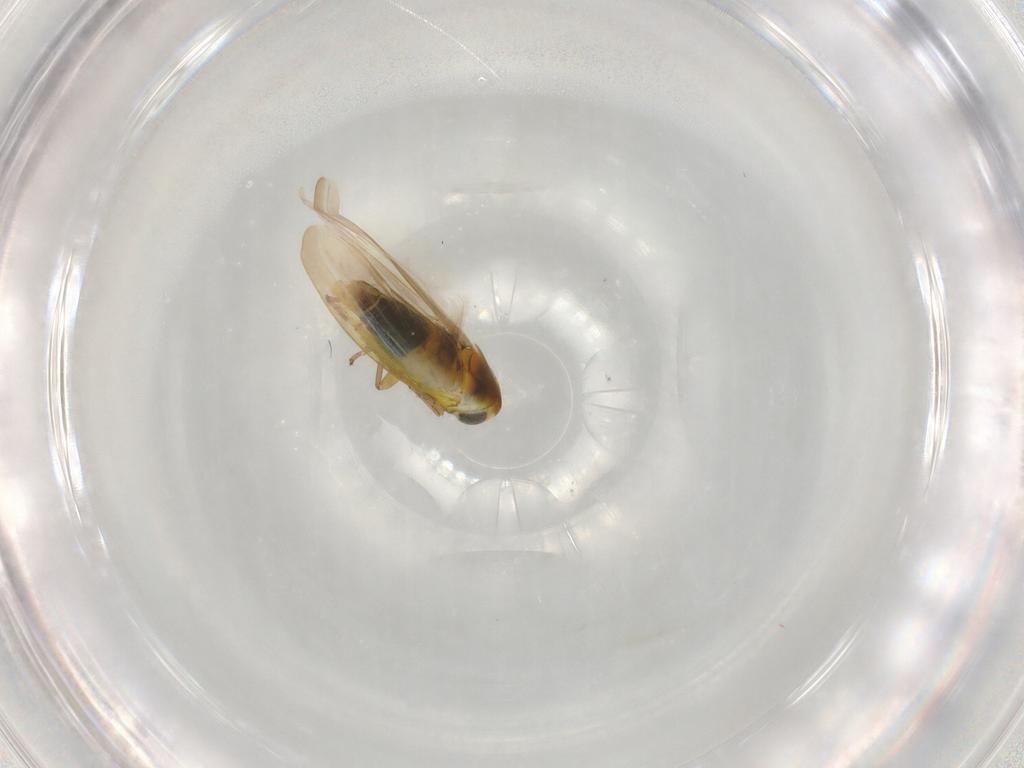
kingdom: Animalia
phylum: Arthropoda
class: Insecta
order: Hemiptera
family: Cicadellidae
